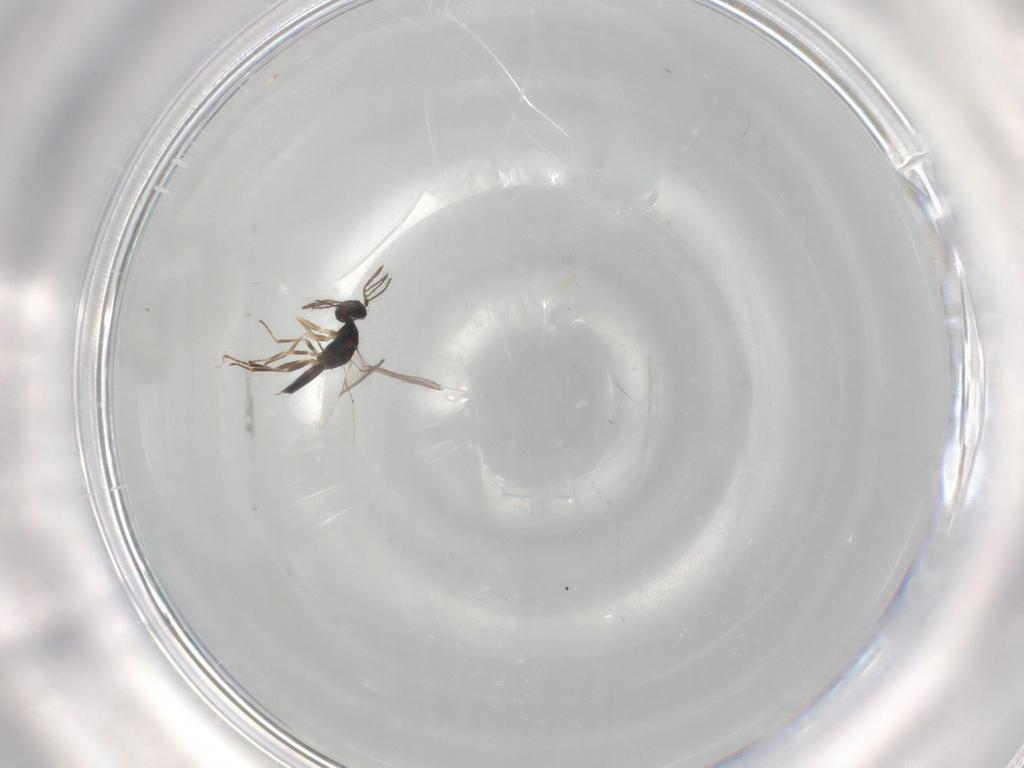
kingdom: Animalia
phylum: Arthropoda
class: Insecta
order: Hymenoptera
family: Eulophidae
